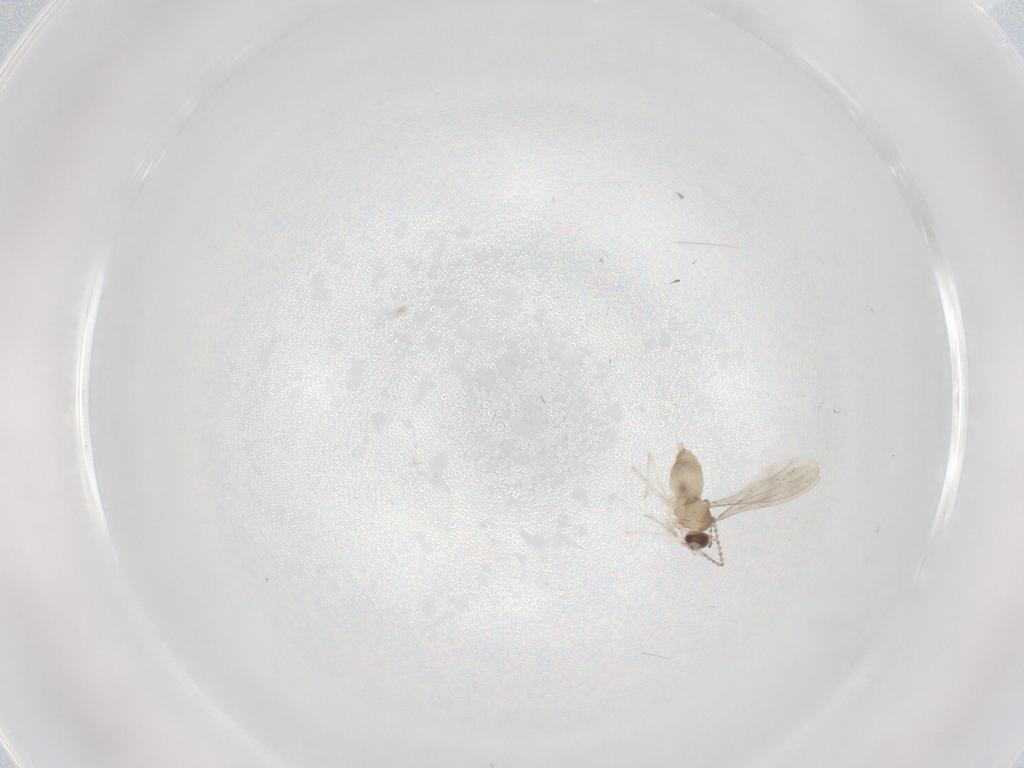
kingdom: Animalia
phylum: Arthropoda
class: Insecta
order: Diptera
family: Cecidomyiidae
